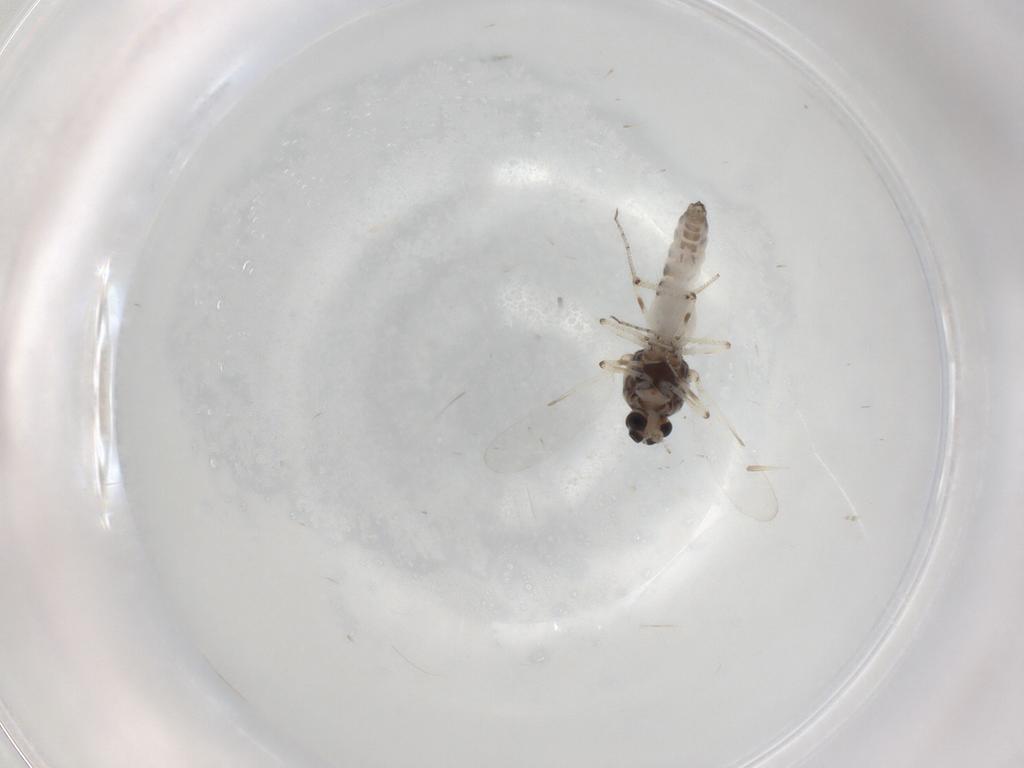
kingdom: Animalia
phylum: Arthropoda
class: Insecta
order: Diptera
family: Ceratopogonidae
